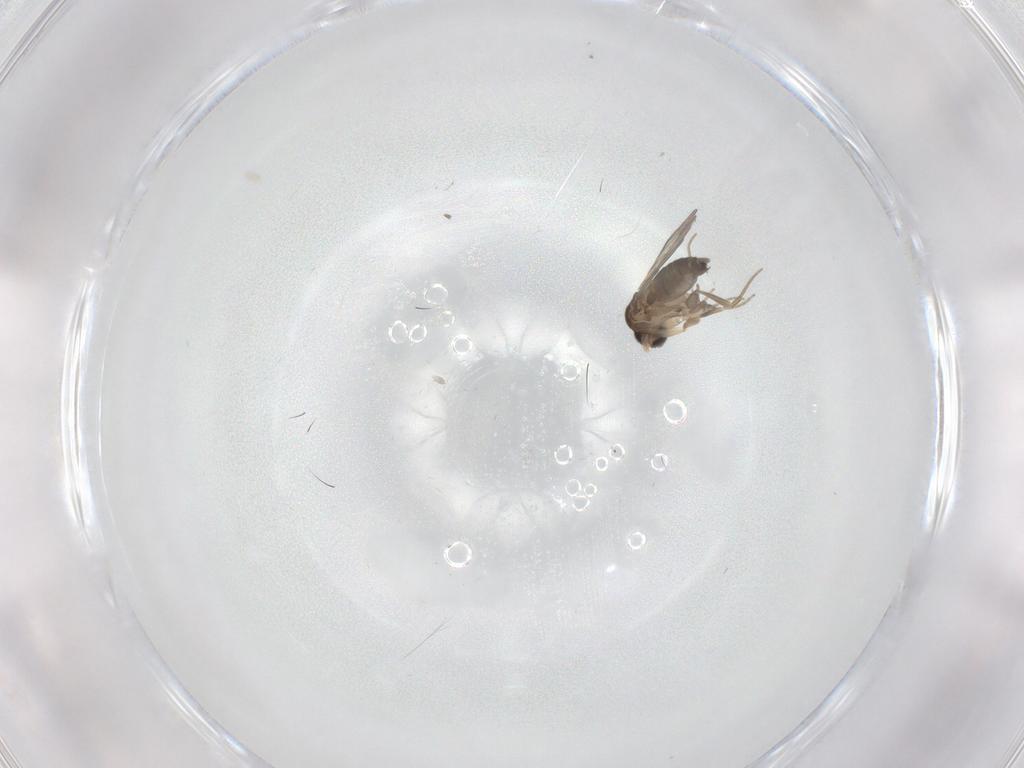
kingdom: Animalia
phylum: Arthropoda
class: Insecta
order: Diptera
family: Phoridae
